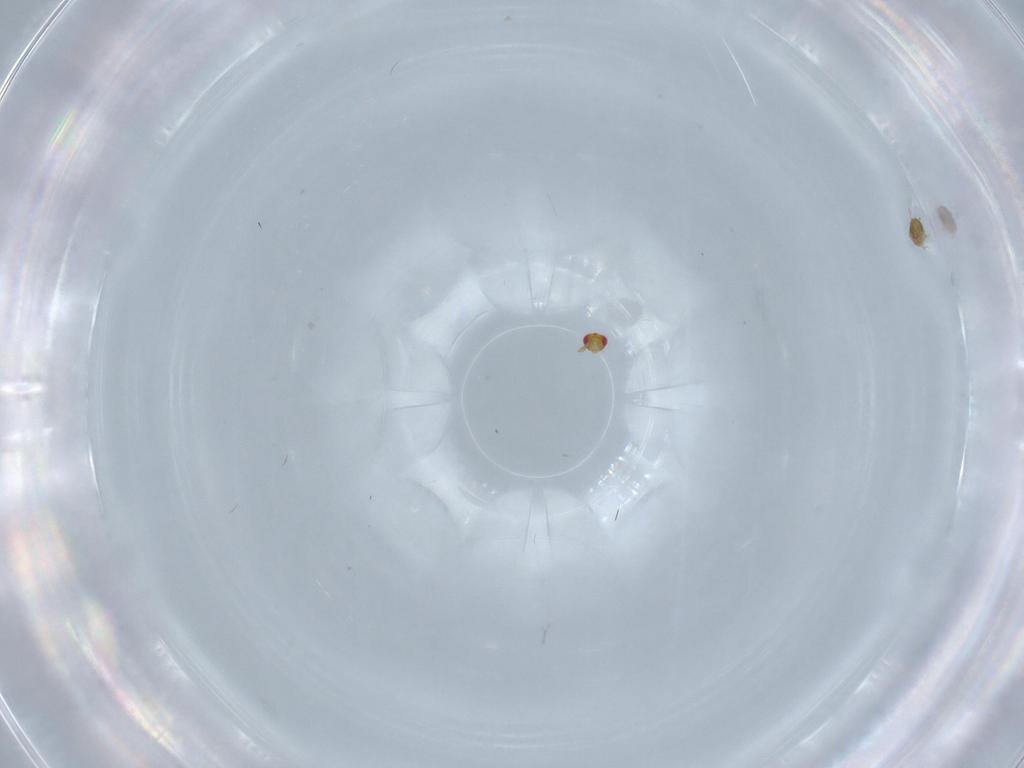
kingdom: Animalia
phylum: Arthropoda
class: Insecta
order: Hymenoptera
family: Trichogrammatidae
